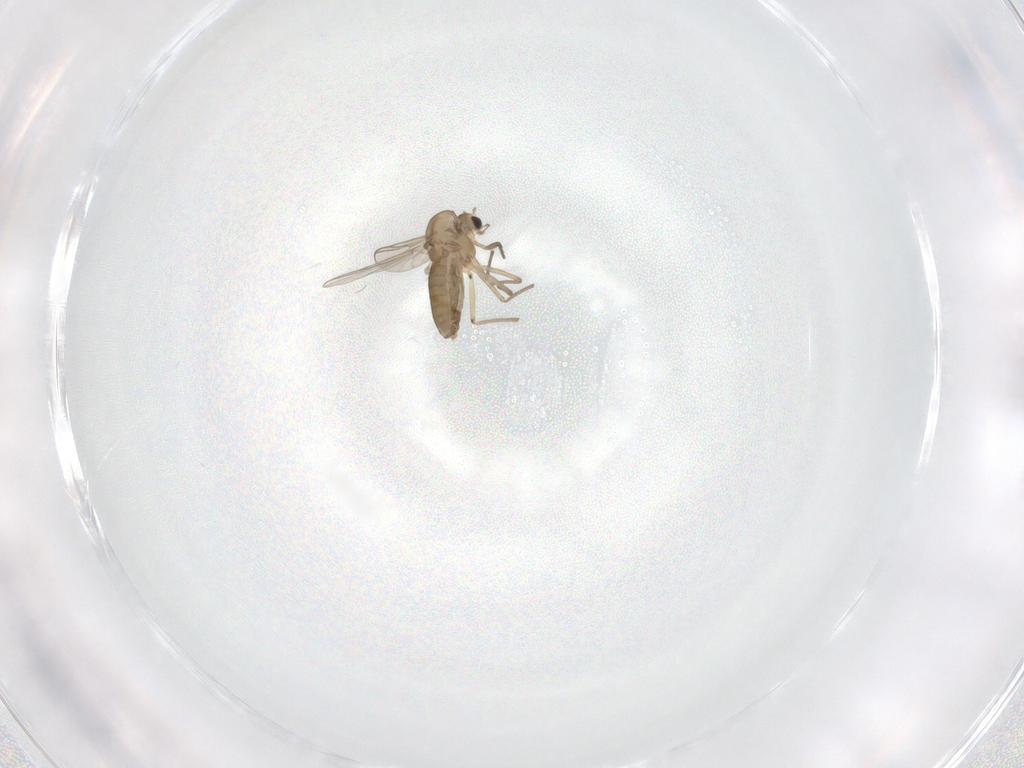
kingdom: Animalia
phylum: Arthropoda
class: Insecta
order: Diptera
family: Chironomidae
